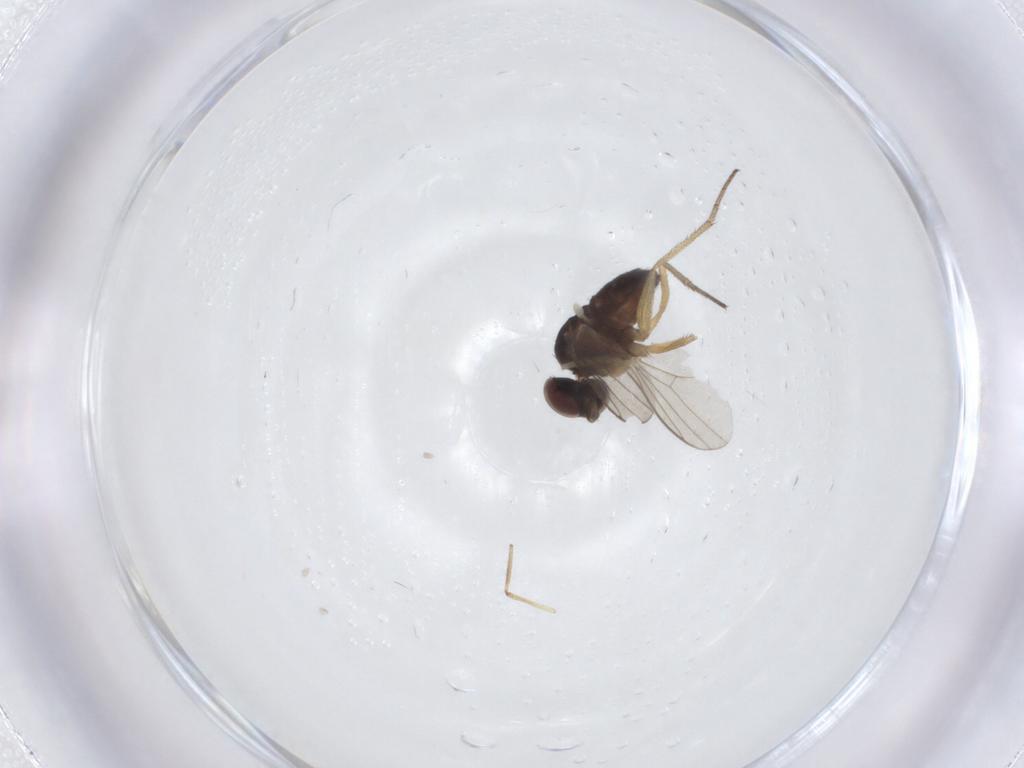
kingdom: Animalia
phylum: Arthropoda
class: Insecta
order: Diptera
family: Dolichopodidae
